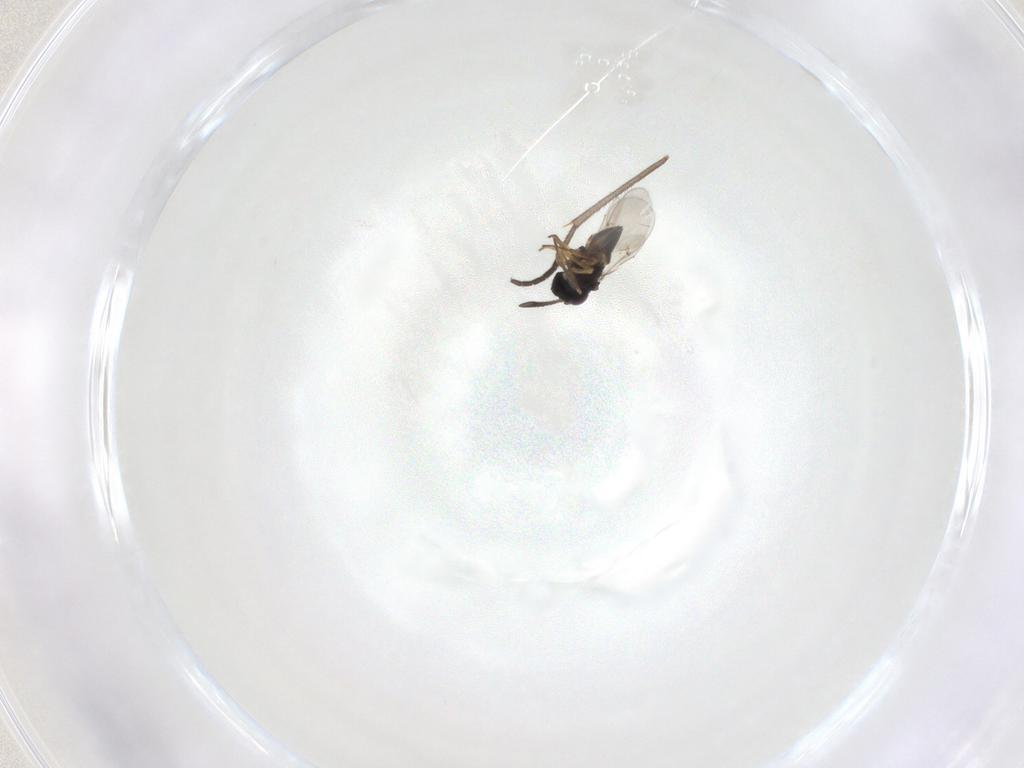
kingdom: Animalia
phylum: Arthropoda
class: Insecta
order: Hymenoptera
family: Encyrtidae
